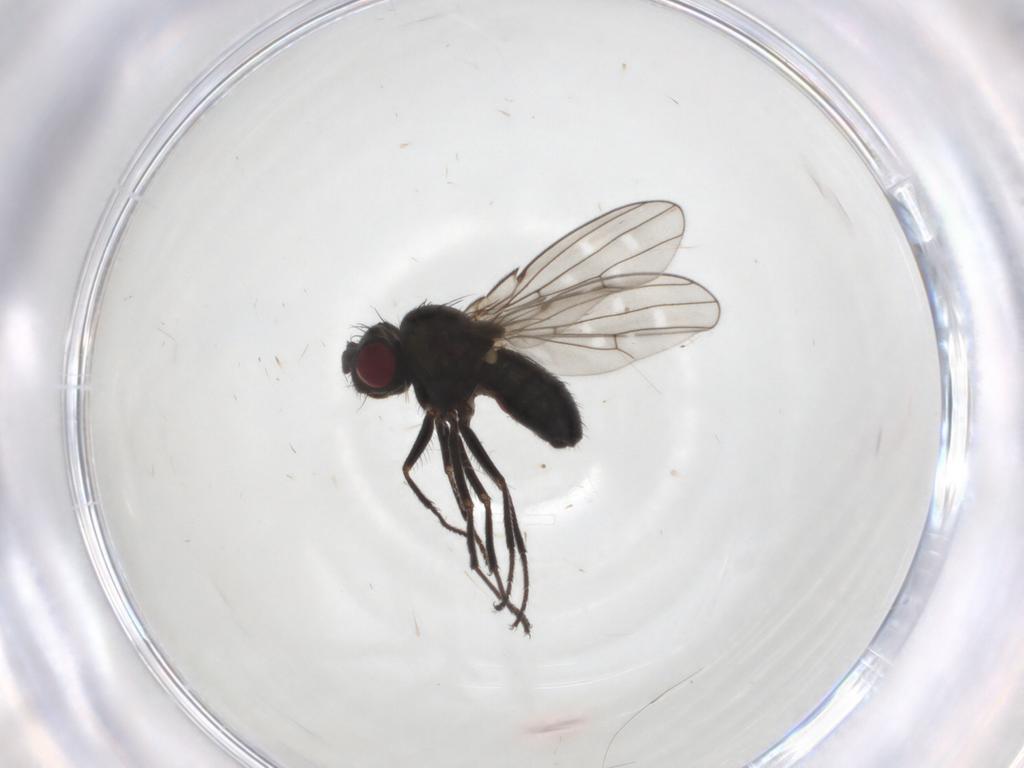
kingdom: Animalia
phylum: Arthropoda
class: Insecta
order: Diptera
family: Ephydridae
